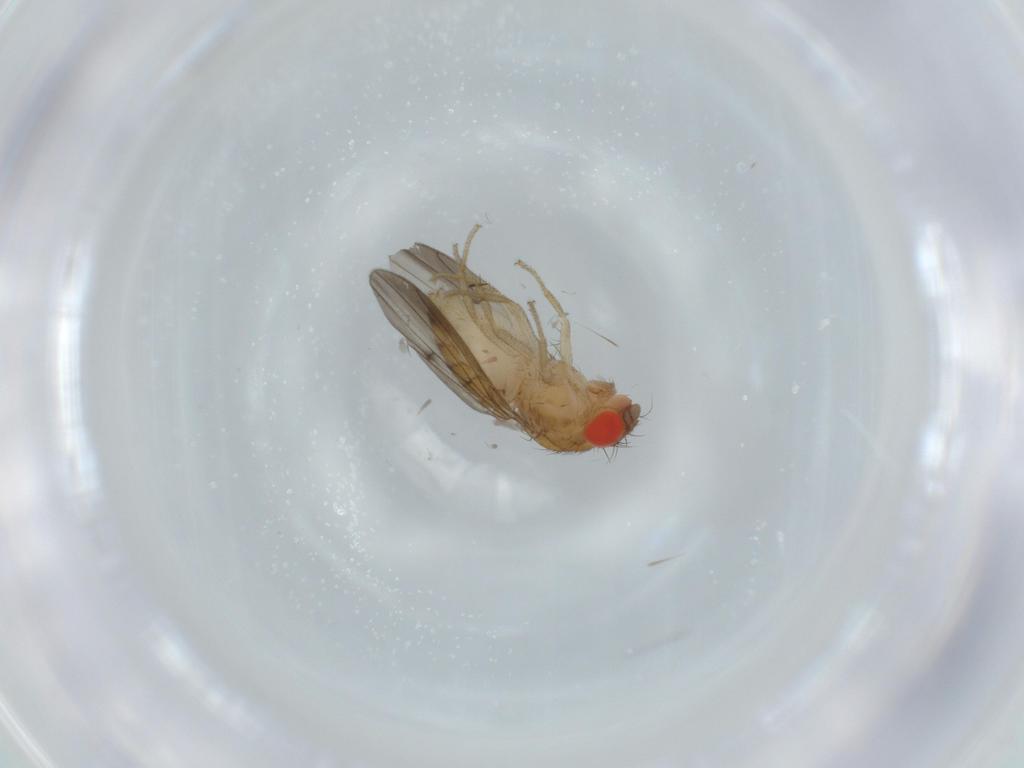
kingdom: Animalia
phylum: Arthropoda
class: Insecta
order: Diptera
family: Drosophilidae
